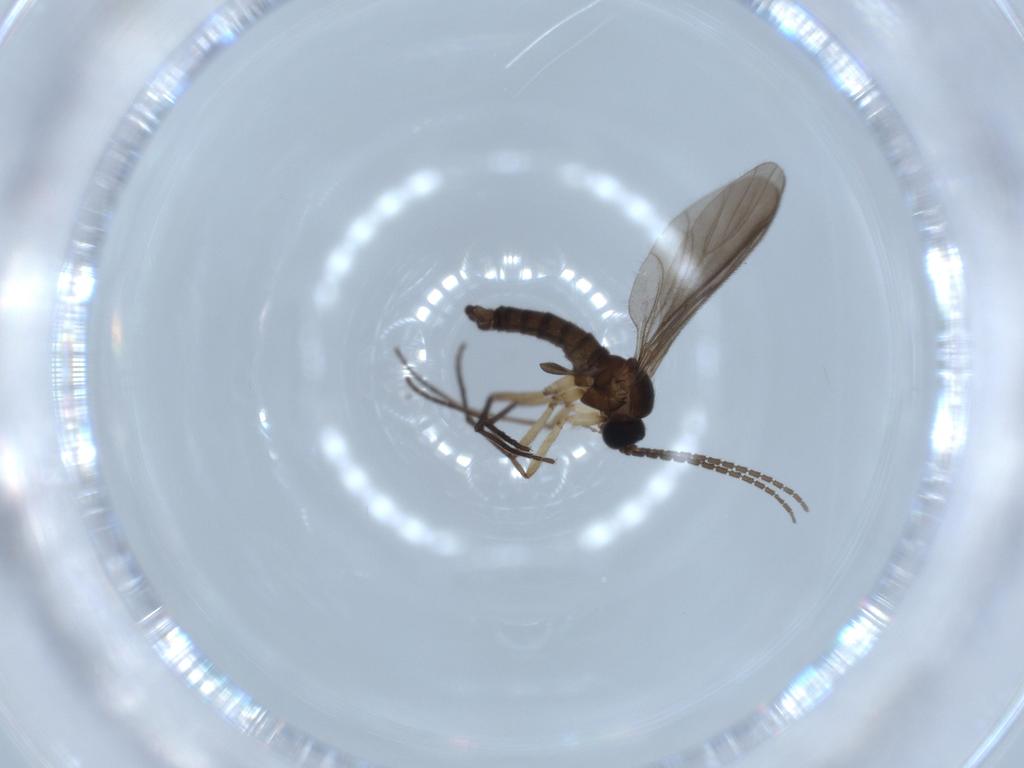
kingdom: Animalia
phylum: Arthropoda
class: Insecta
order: Diptera
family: Cecidomyiidae
